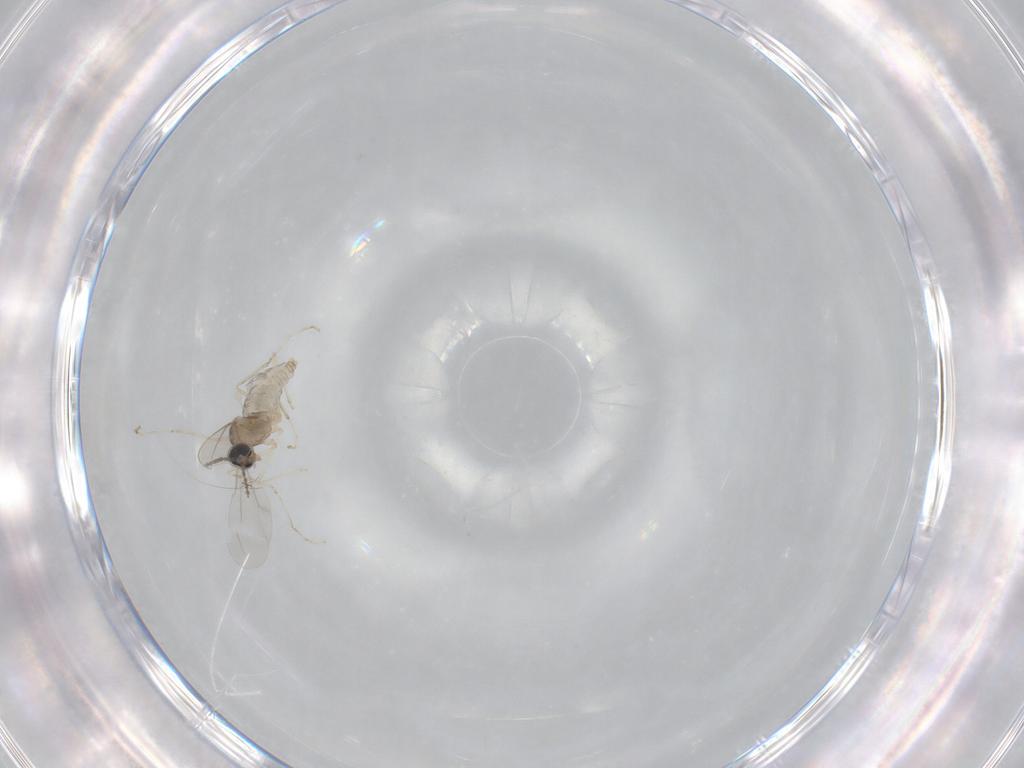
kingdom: Animalia
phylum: Arthropoda
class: Insecta
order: Diptera
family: Cecidomyiidae
